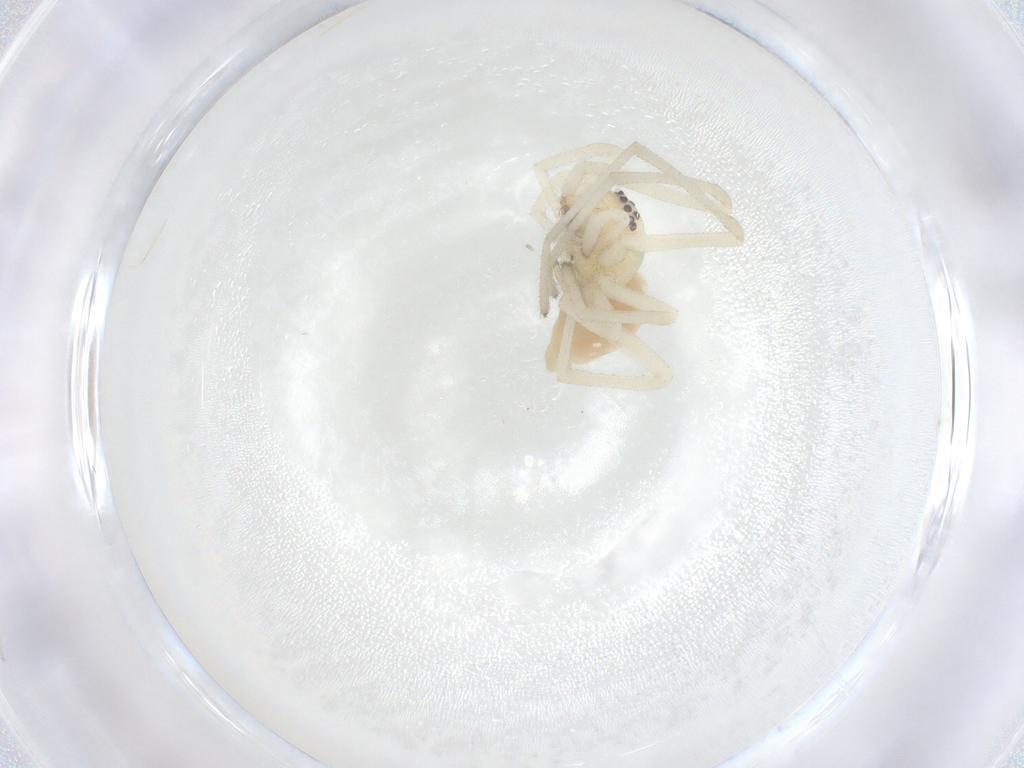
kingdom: Animalia
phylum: Arthropoda
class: Arachnida
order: Araneae
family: Cheiracanthiidae
